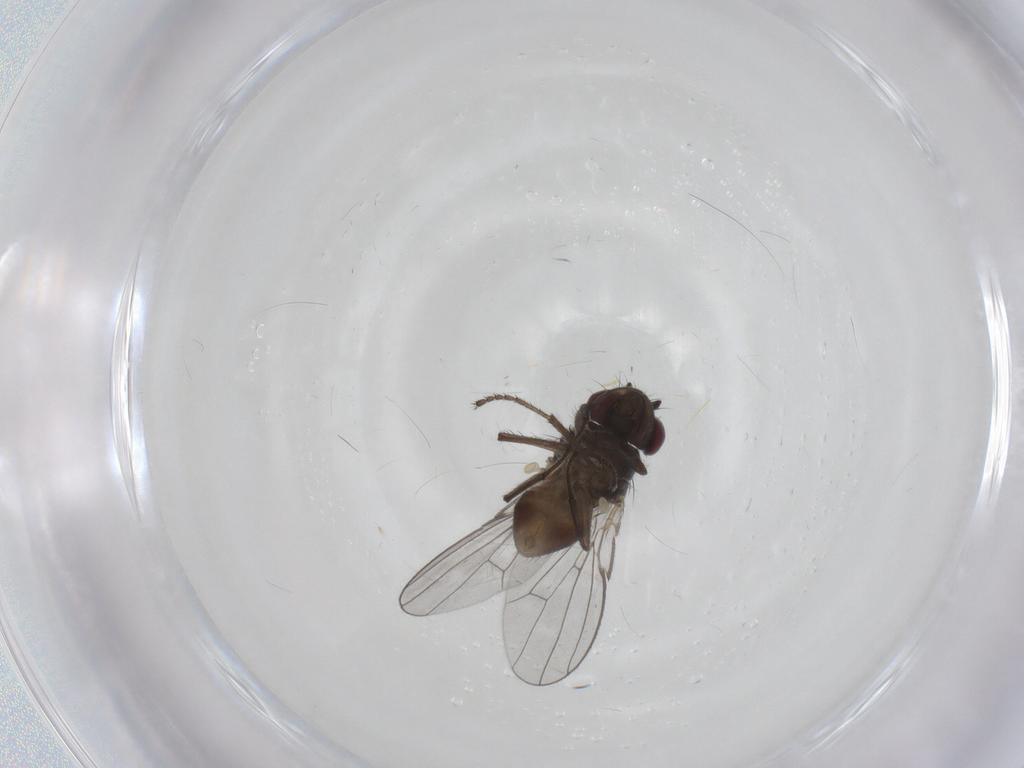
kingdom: Animalia
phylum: Arthropoda
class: Insecta
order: Diptera
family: Ephydridae
